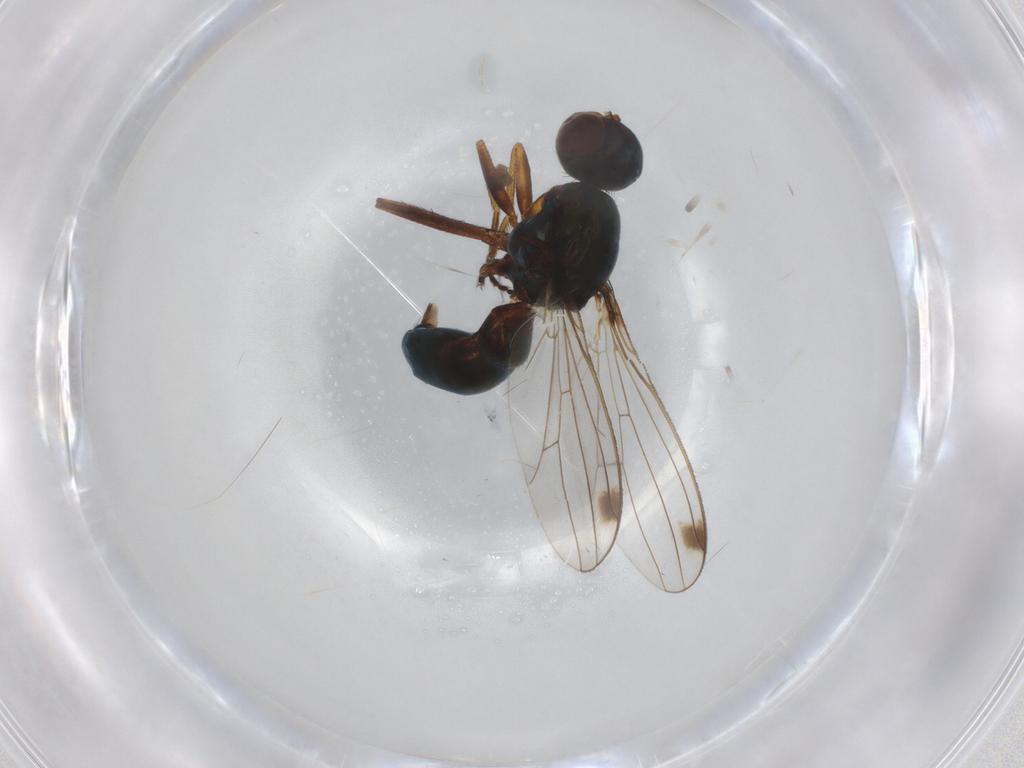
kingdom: Animalia
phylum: Arthropoda
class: Insecta
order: Diptera
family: Sepsidae
